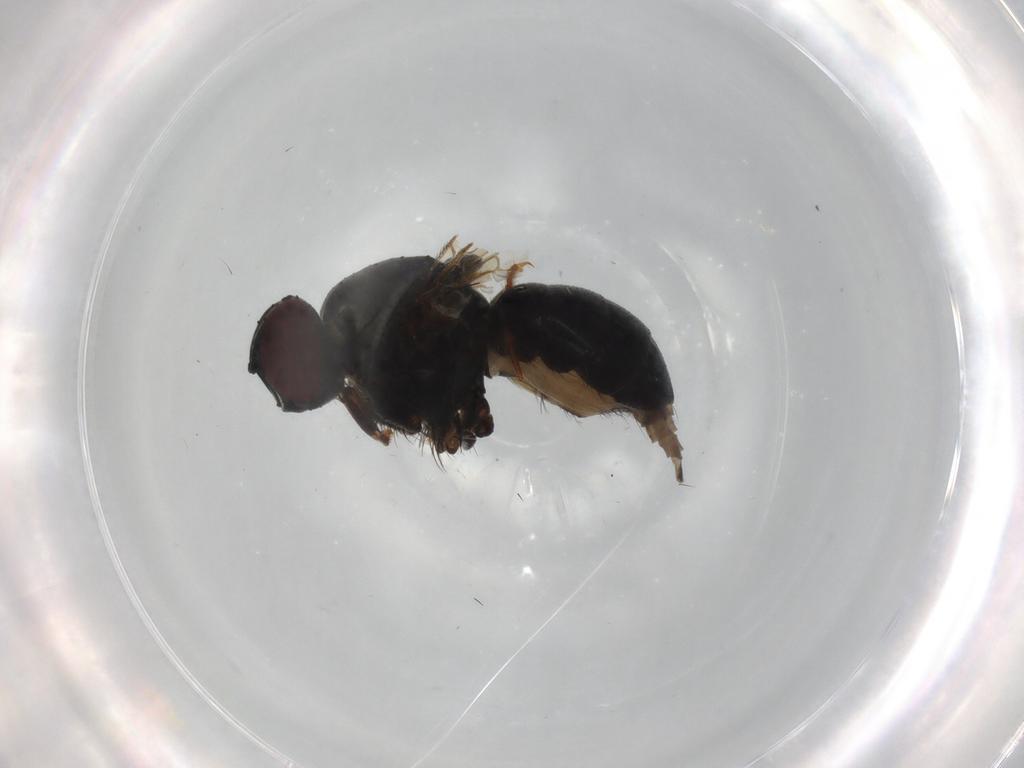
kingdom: Animalia
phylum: Arthropoda
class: Insecta
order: Diptera
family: Muscidae
